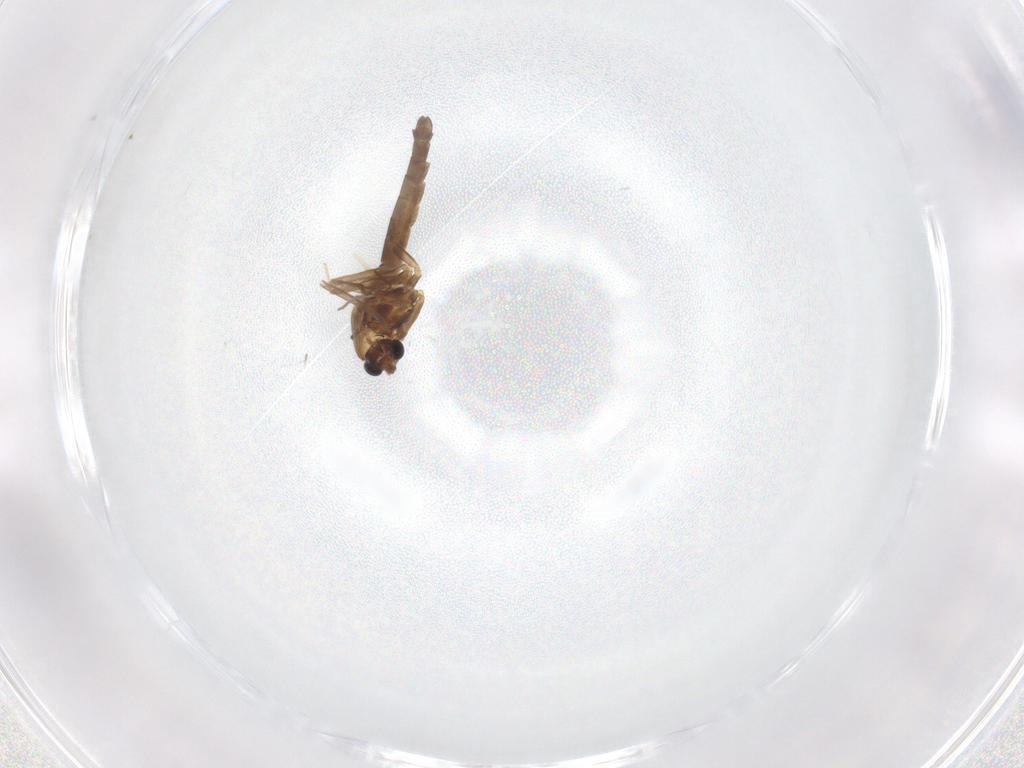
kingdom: Animalia
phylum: Arthropoda
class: Insecta
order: Diptera
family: Chironomidae
